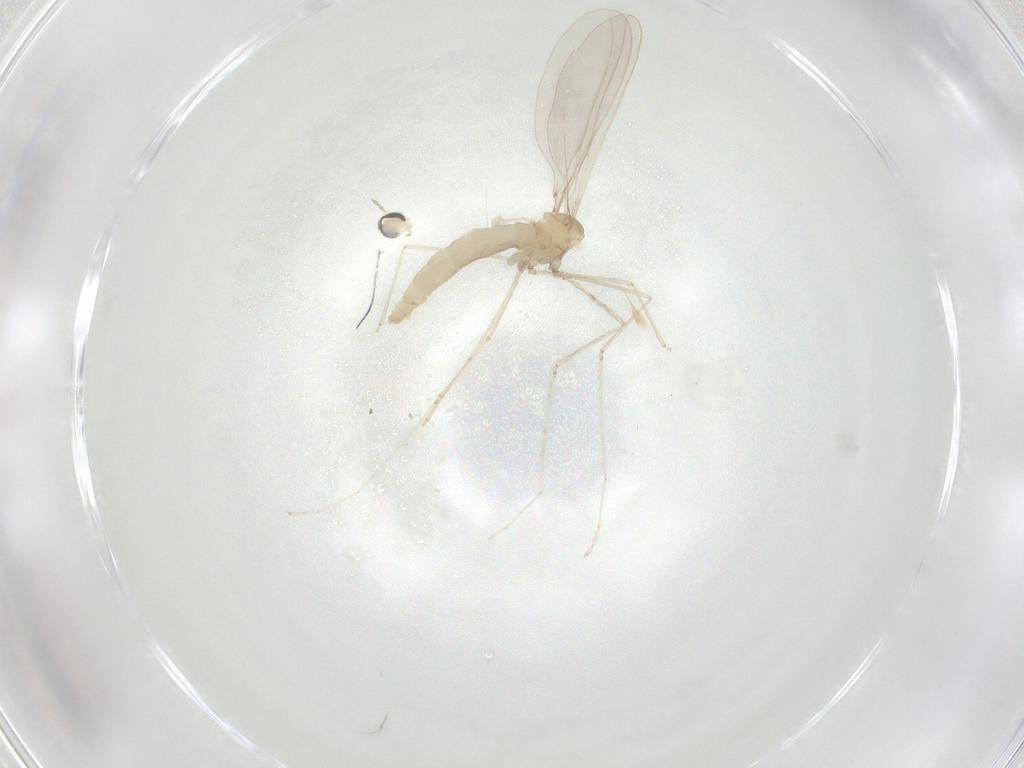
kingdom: Animalia
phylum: Arthropoda
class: Insecta
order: Diptera
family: Cecidomyiidae
